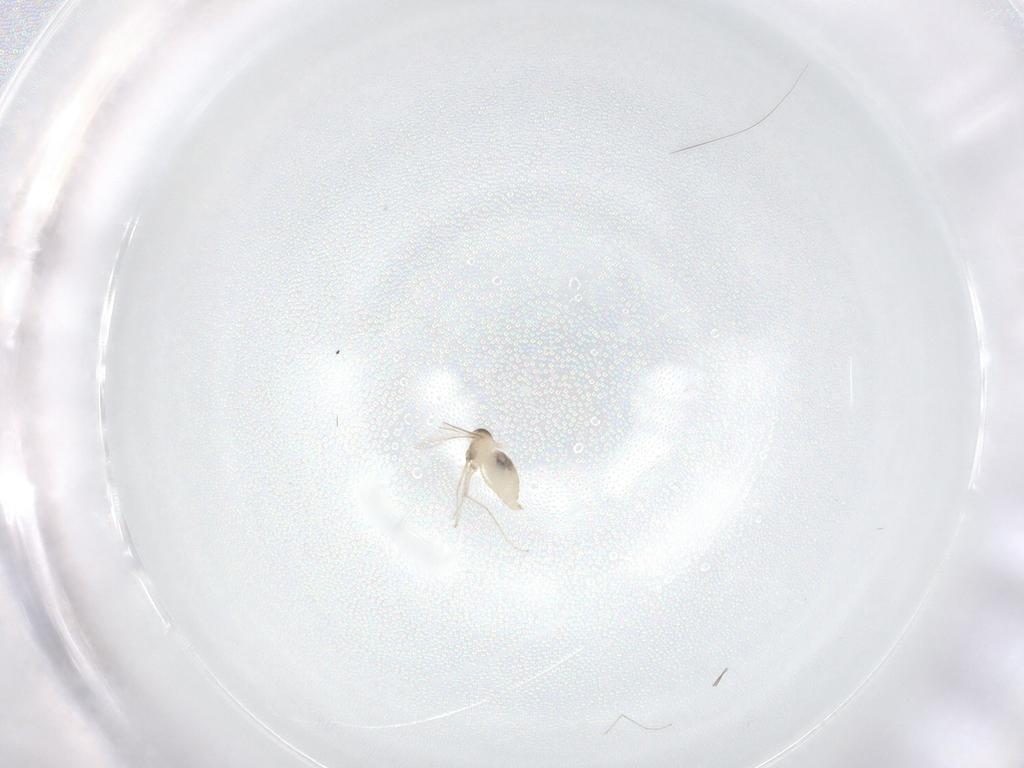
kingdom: Animalia
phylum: Arthropoda
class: Insecta
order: Diptera
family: Cecidomyiidae
